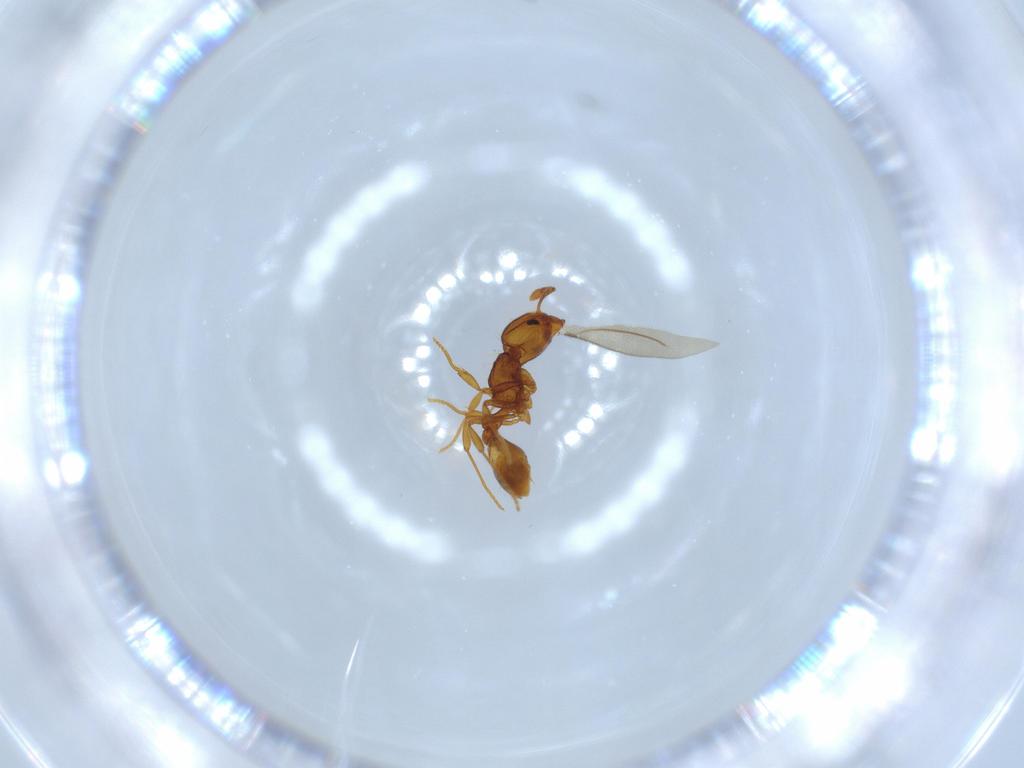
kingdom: Animalia
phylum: Arthropoda
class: Insecta
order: Hymenoptera
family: Formicidae
